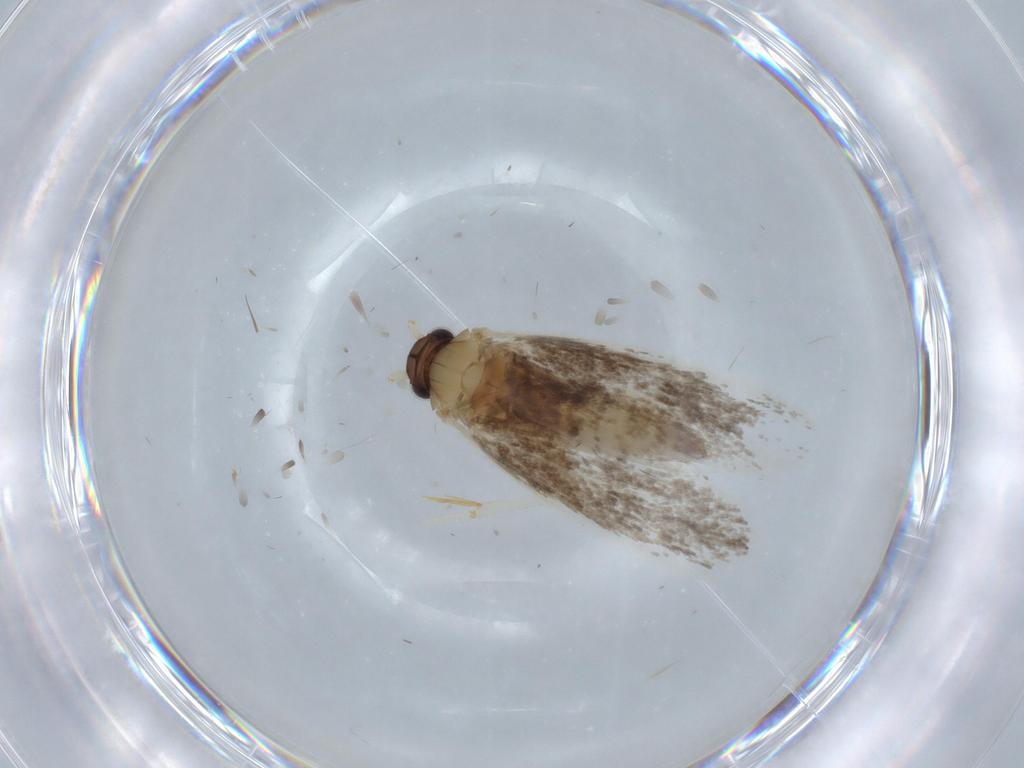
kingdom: Animalia
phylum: Arthropoda
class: Insecta
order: Lepidoptera
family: Tineidae
